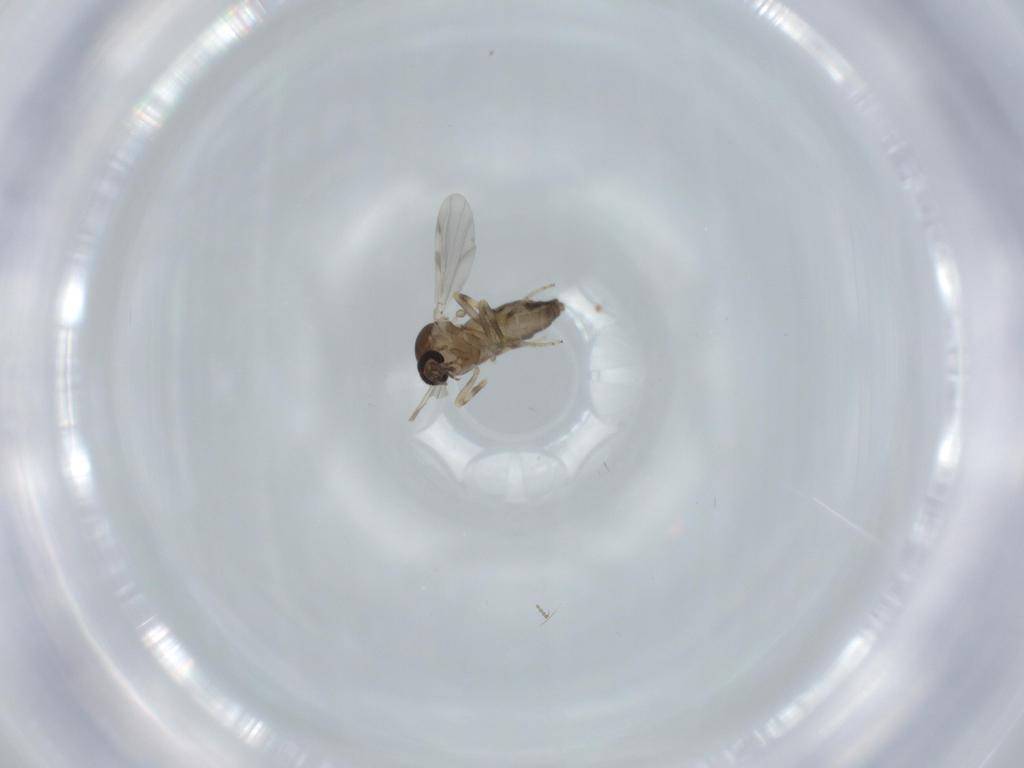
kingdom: Animalia
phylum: Arthropoda
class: Insecta
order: Diptera
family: Ceratopogonidae
